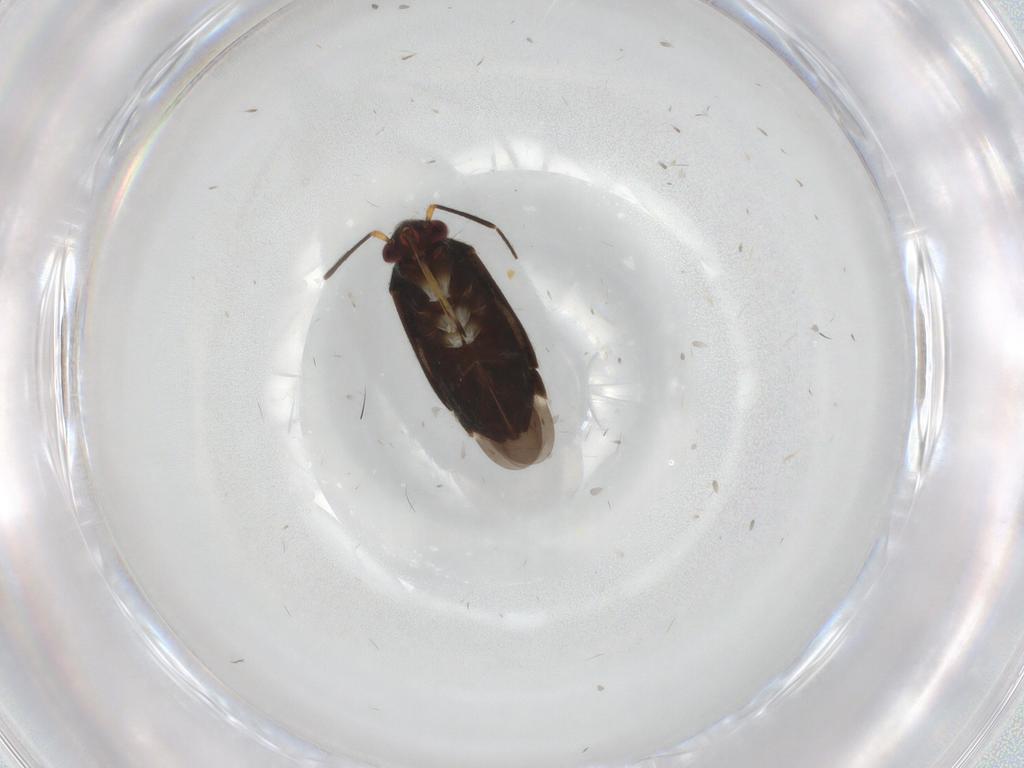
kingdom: Animalia
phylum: Arthropoda
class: Insecta
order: Hemiptera
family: Miridae
